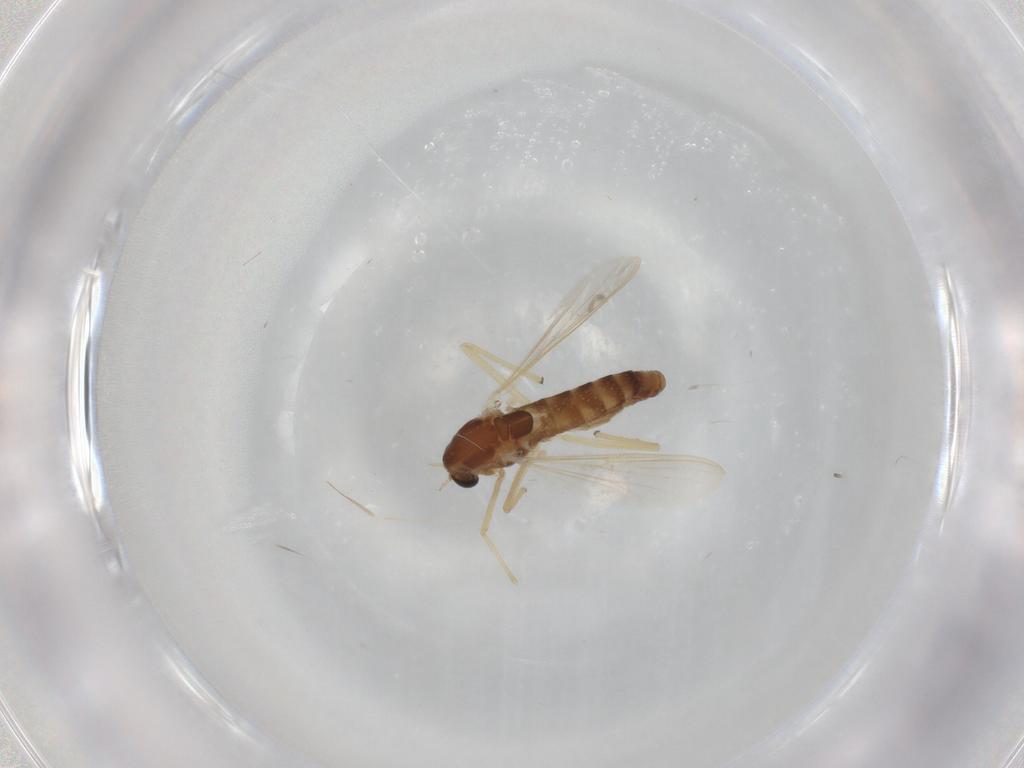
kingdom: Animalia
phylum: Arthropoda
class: Insecta
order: Diptera
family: Chironomidae
